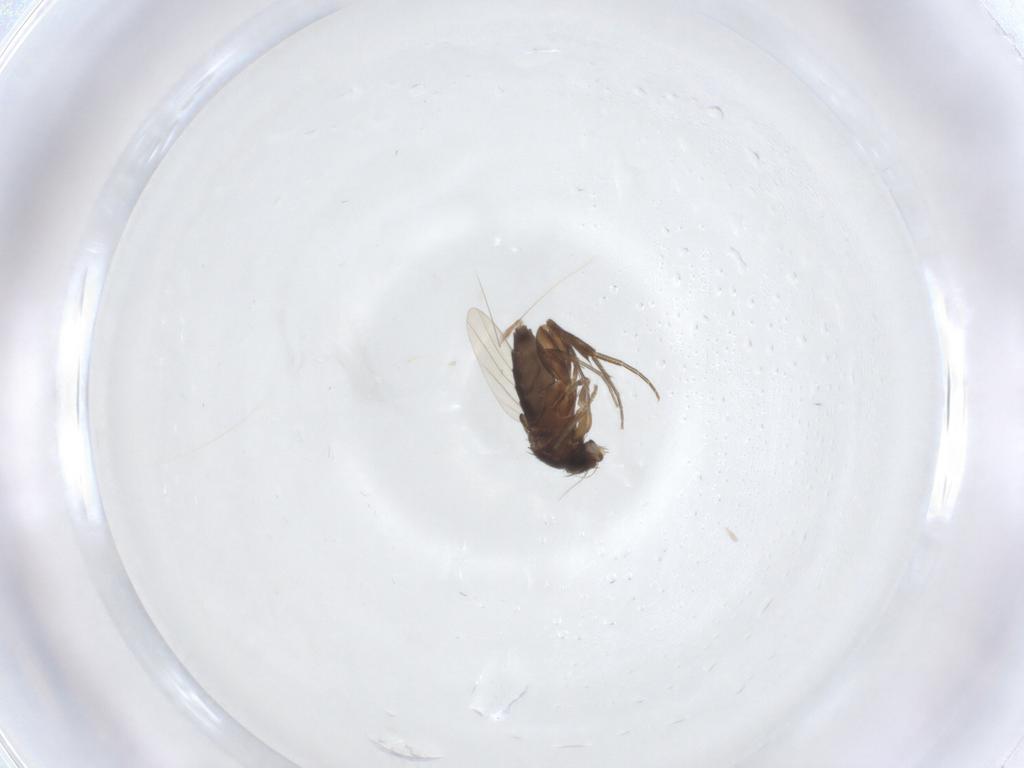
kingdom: Animalia
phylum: Arthropoda
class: Insecta
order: Diptera
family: Phoridae
